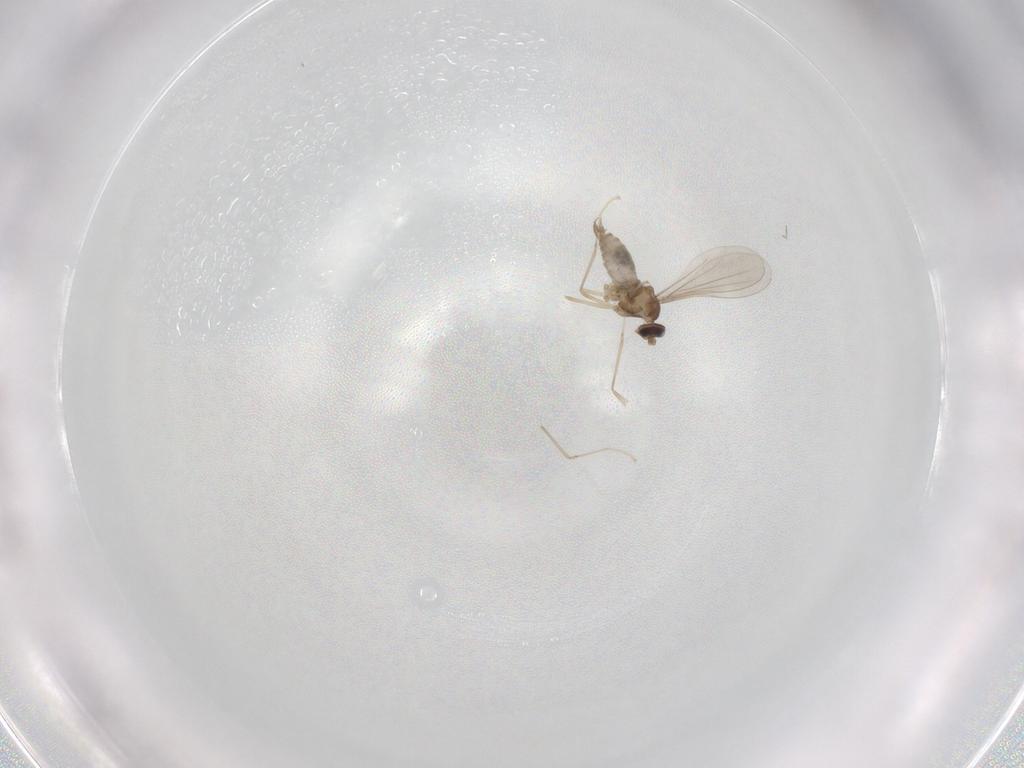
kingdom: Animalia
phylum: Arthropoda
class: Insecta
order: Diptera
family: Cecidomyiidae
